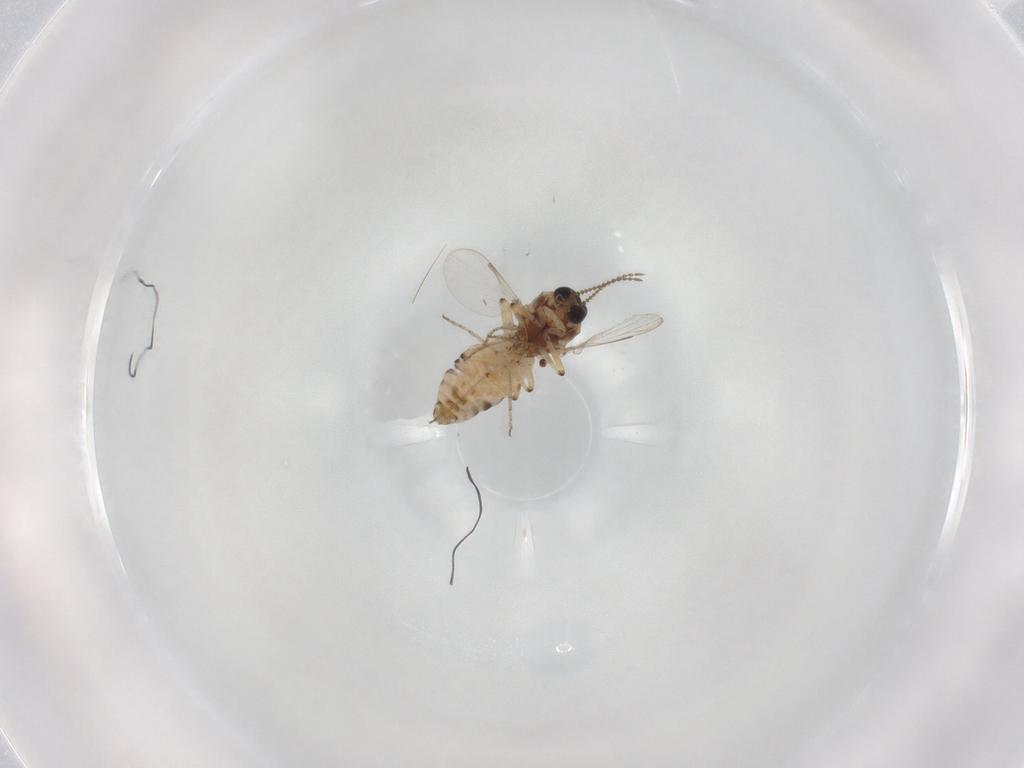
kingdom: Animalia
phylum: Arthropoda
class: Insecta
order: Diptera
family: Ceratopogonidae
